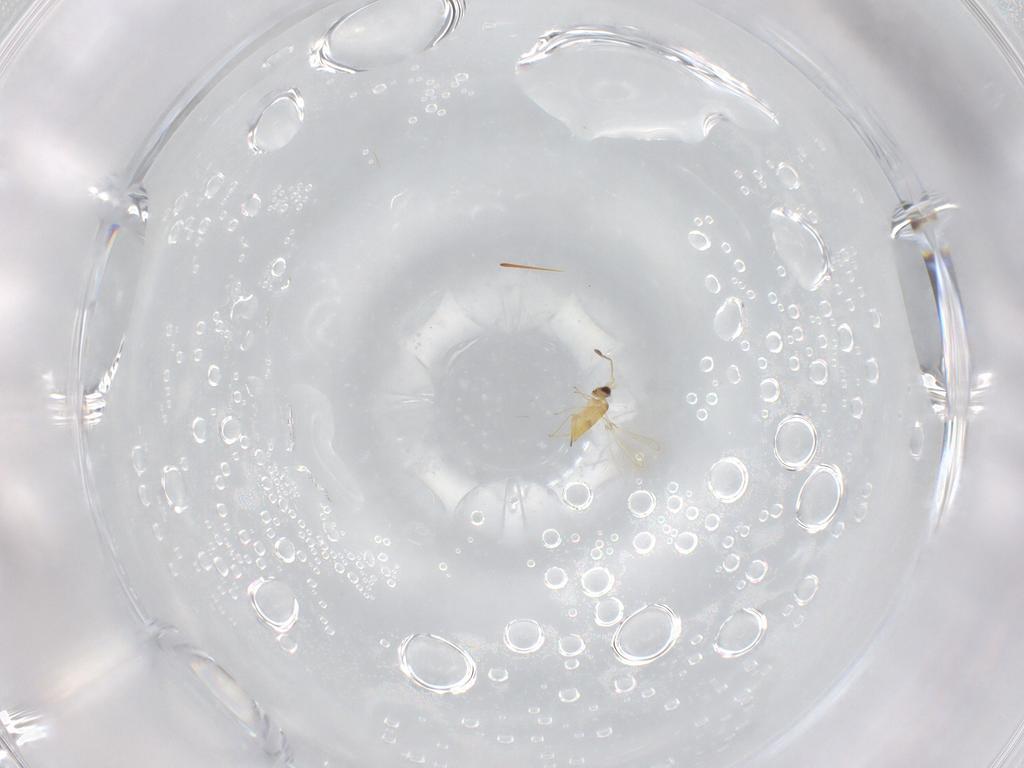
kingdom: Animalia
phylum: Arthropoda
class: Insecta
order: Hymenoptera
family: Mymaridae
